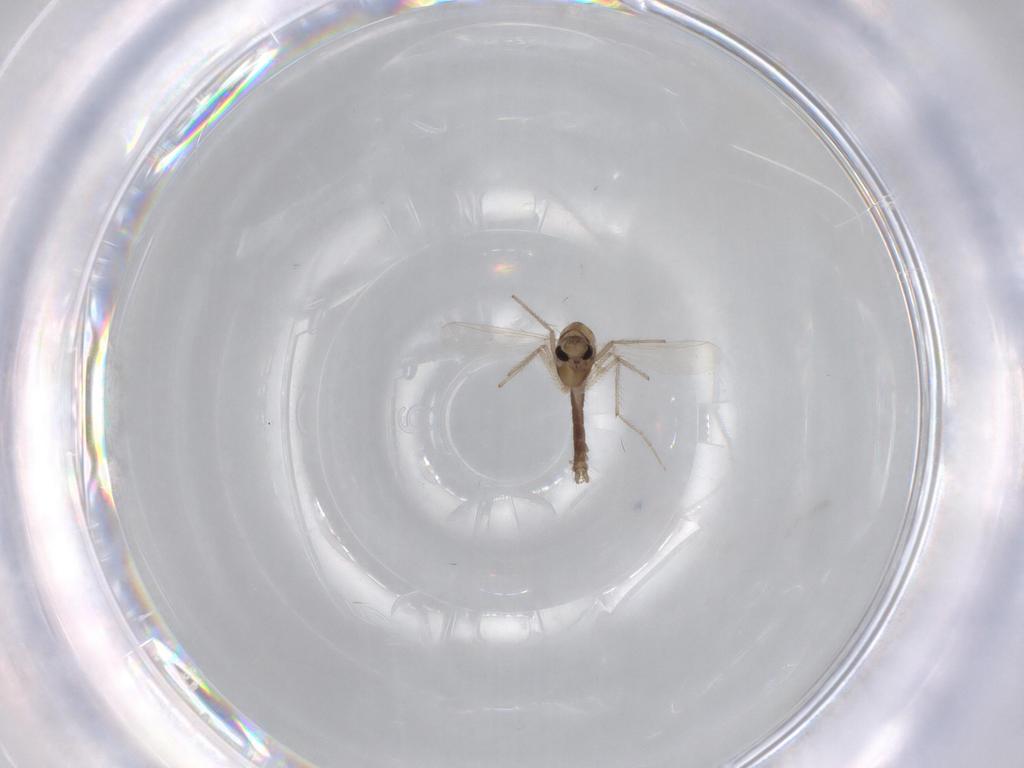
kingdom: Animalia
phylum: Arthropoda
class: Insecta
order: Diptera
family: Chironomidae
